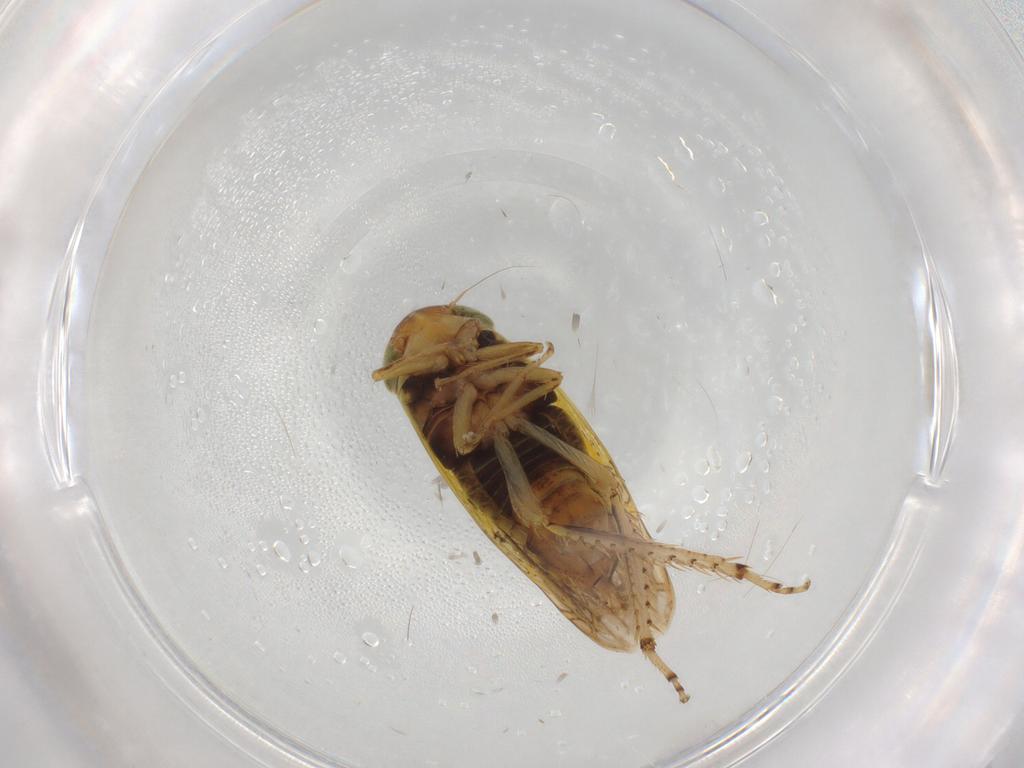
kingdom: Animalia
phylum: Arthropoda
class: Insecta
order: Hemiptera
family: Cicadellidae
